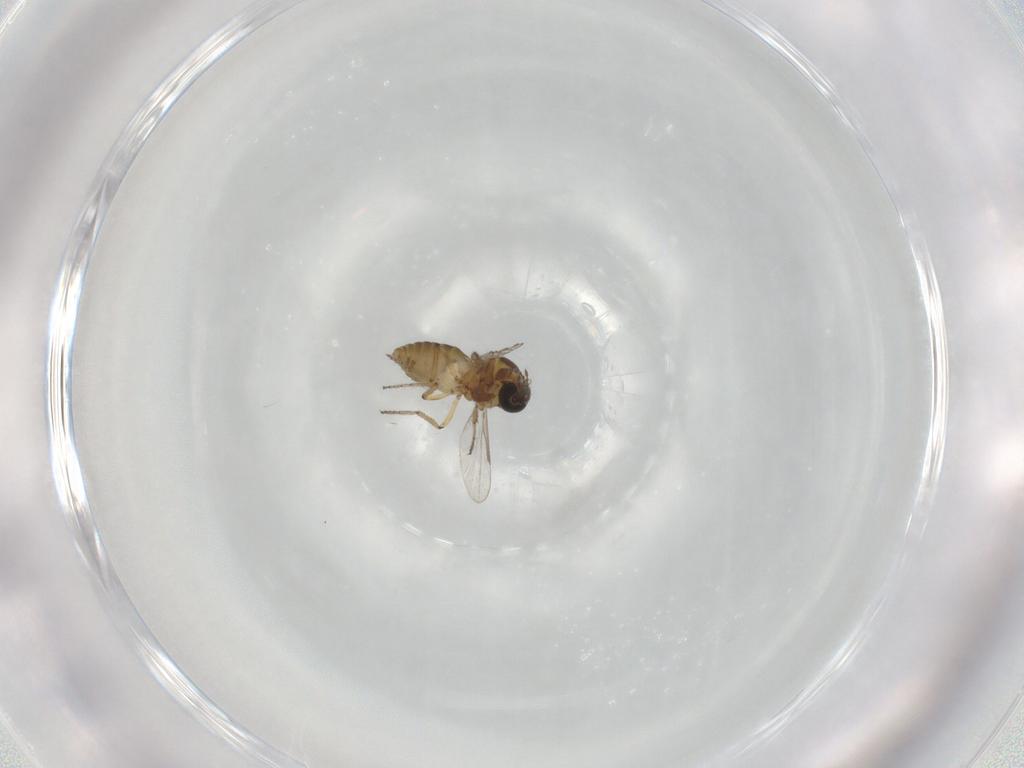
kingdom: Animalia
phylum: Arthropoda
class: Insecta
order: Diptera
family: Ceratopogonidae
